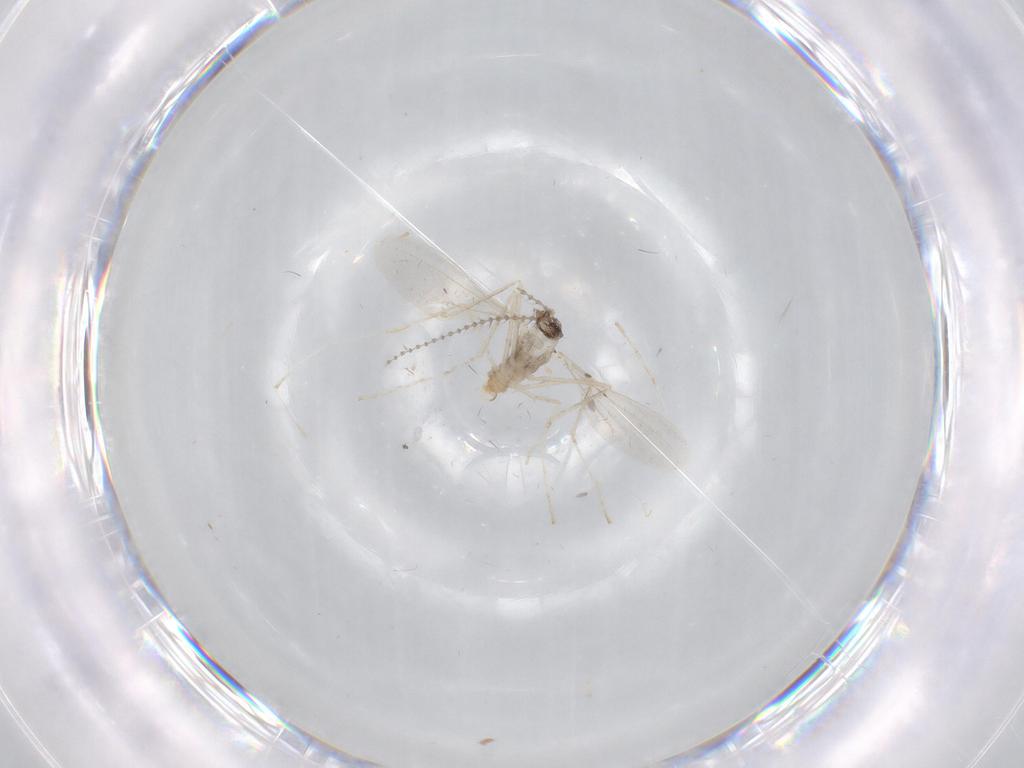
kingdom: Animalia
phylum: Arthropoda
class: Insecta
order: Diptera
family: Cecidomyiidae
